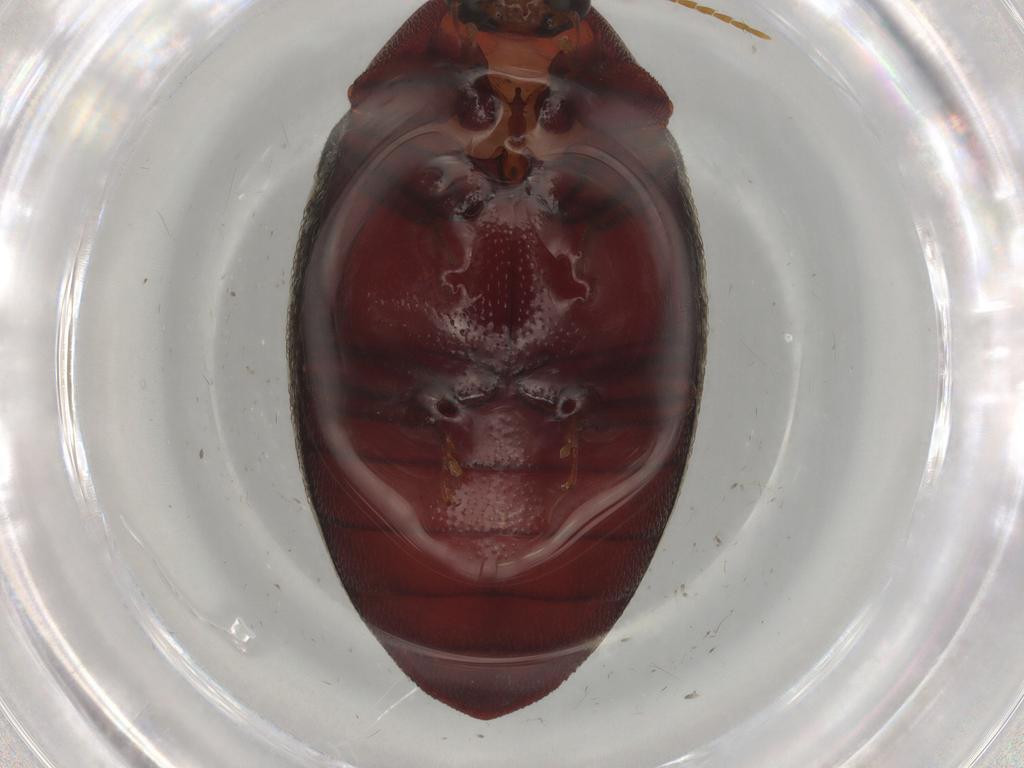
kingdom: Animalia
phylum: Arthropoda
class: Insecta
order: Coleoptera
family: Chelonariidae
